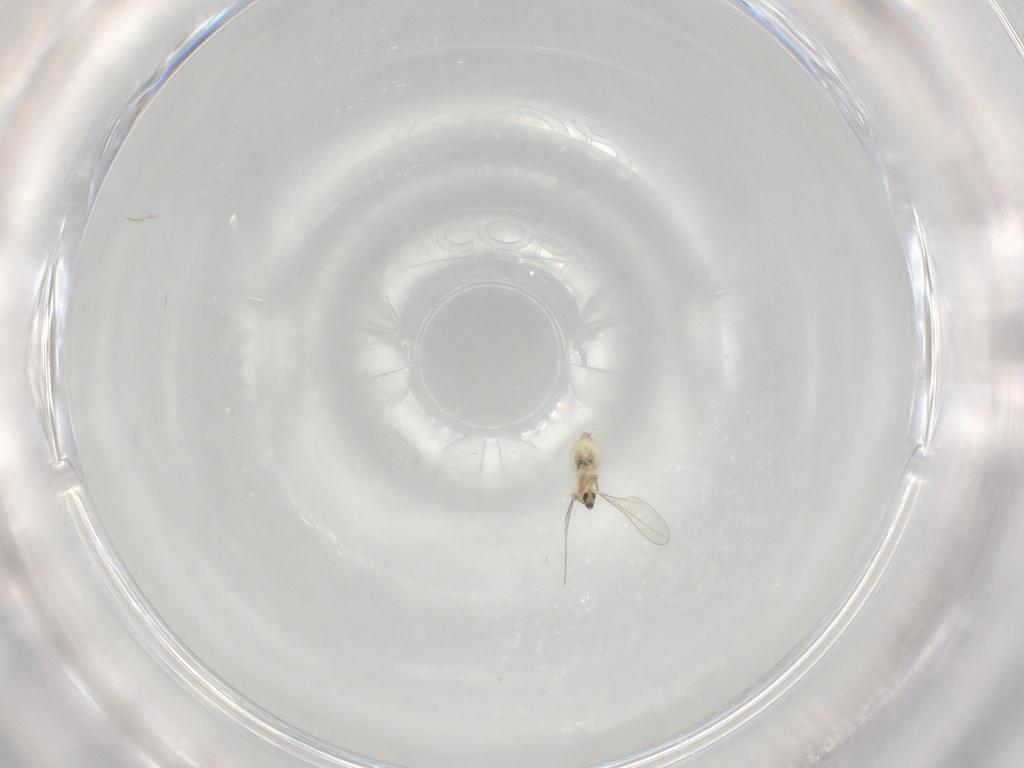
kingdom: Animalia
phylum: Arthropoda
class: Insecta
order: Diptera
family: Cecidomyiidae
